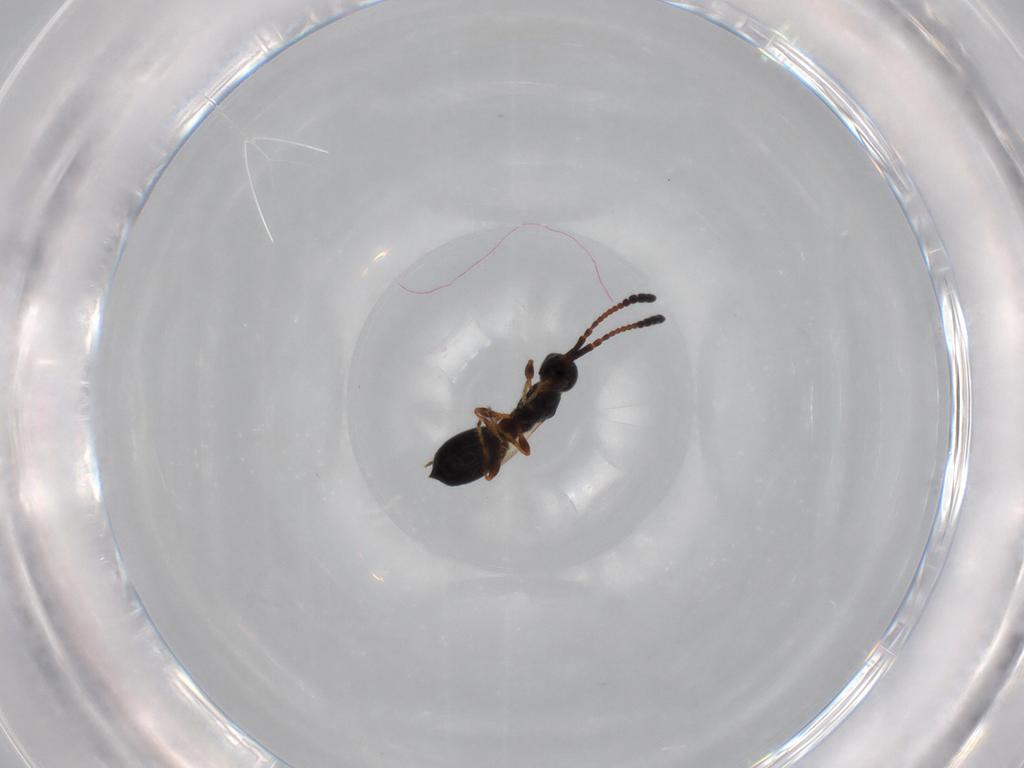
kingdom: Animalia
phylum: Arthropoda
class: Insecta
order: Hymenoptera
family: Diapriidae
